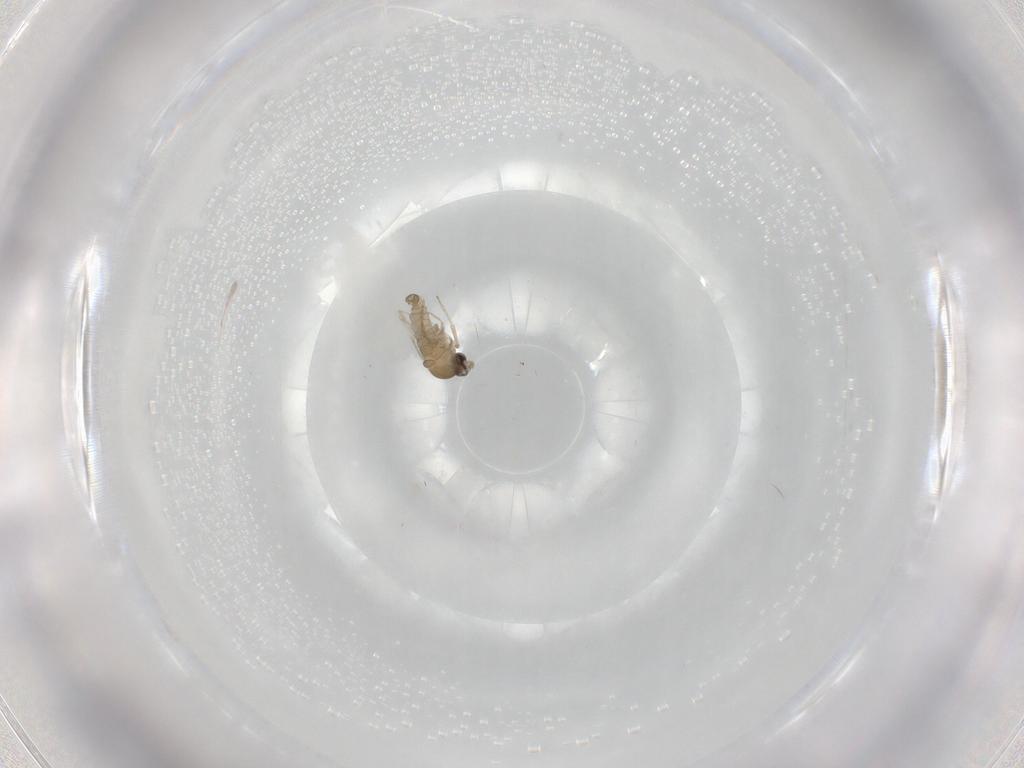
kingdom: Animalia
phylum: Arthropoda
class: Insecta
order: Diptera
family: Cecidomyiidae
